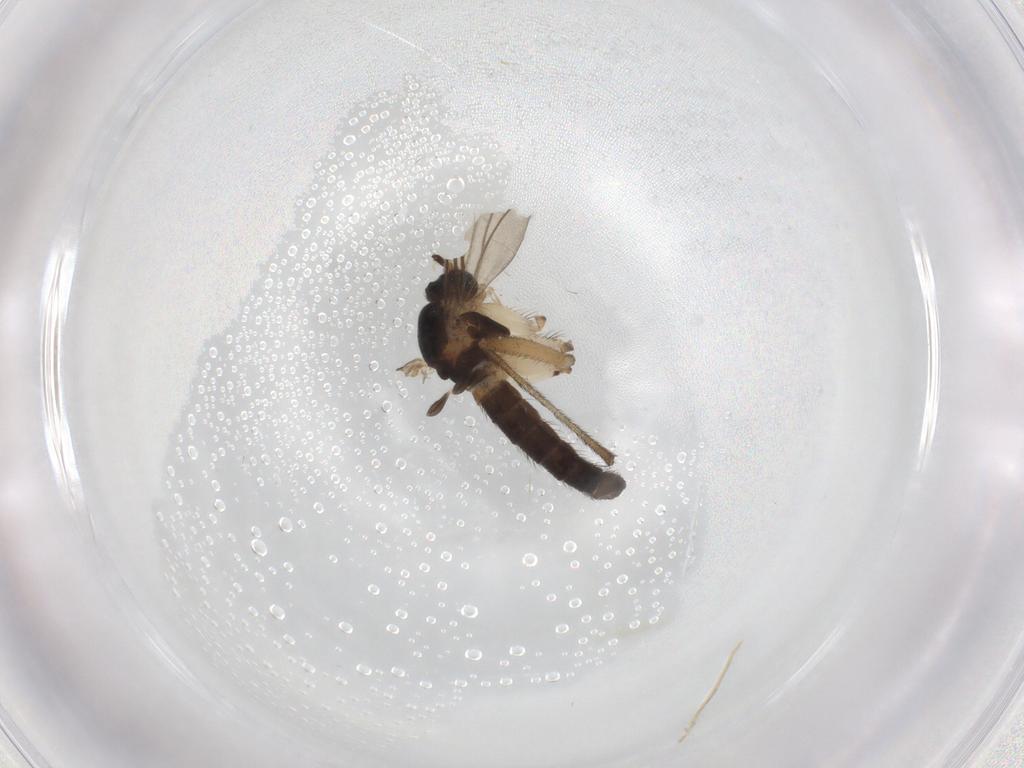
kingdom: Animalia
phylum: Arthropoda
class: Insecta
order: Diptera
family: Sciaridae
